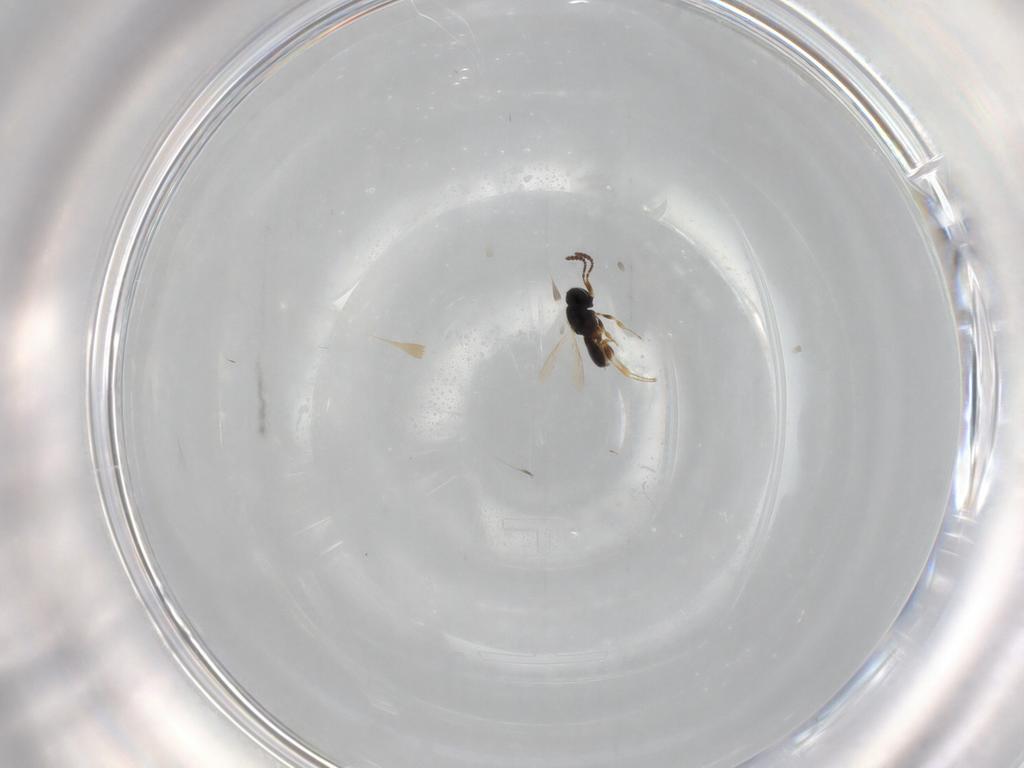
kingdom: Animalia
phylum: Arthropoda
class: Insecta
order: Hymenoptera
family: Scelionidae
